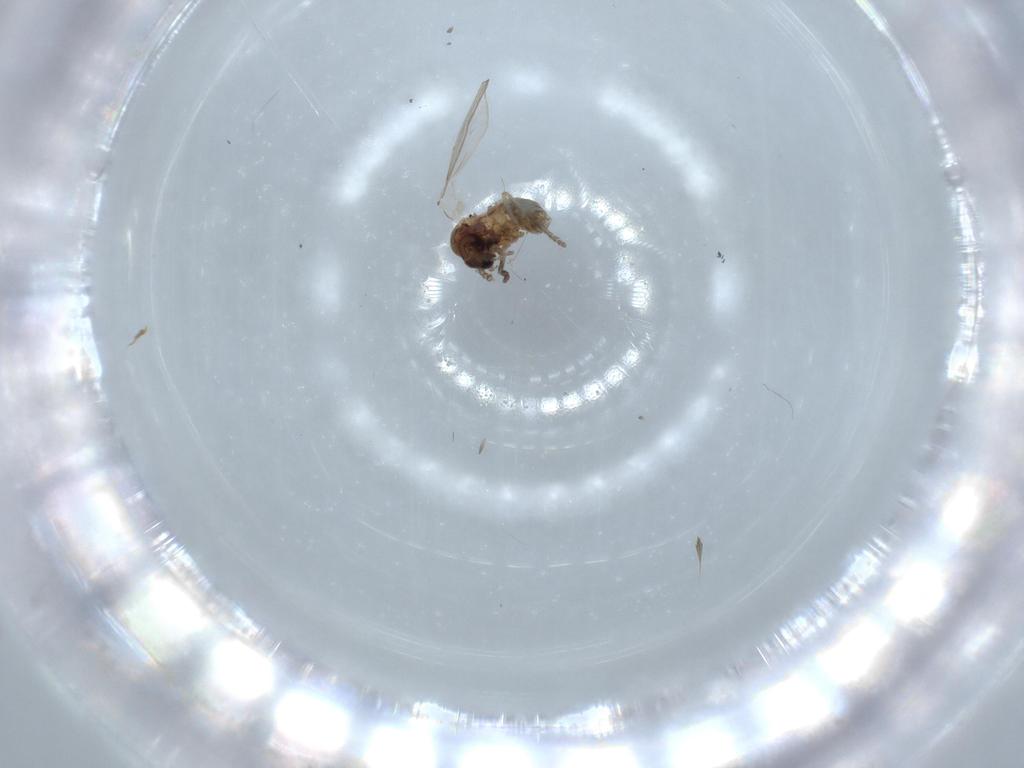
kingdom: Animalia
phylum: Arthropoda
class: Insecta
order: Diptera
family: Psychodidae
